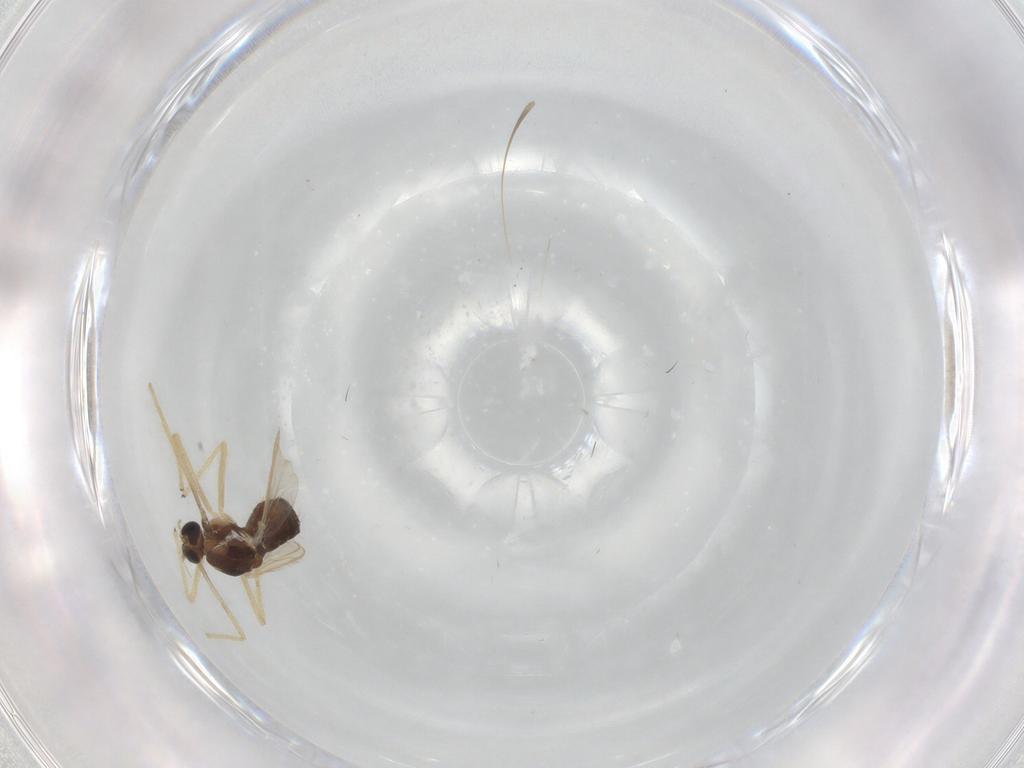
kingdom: Animalia
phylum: Arthropoda
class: Insecta
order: Diptera
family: Chironomidae
